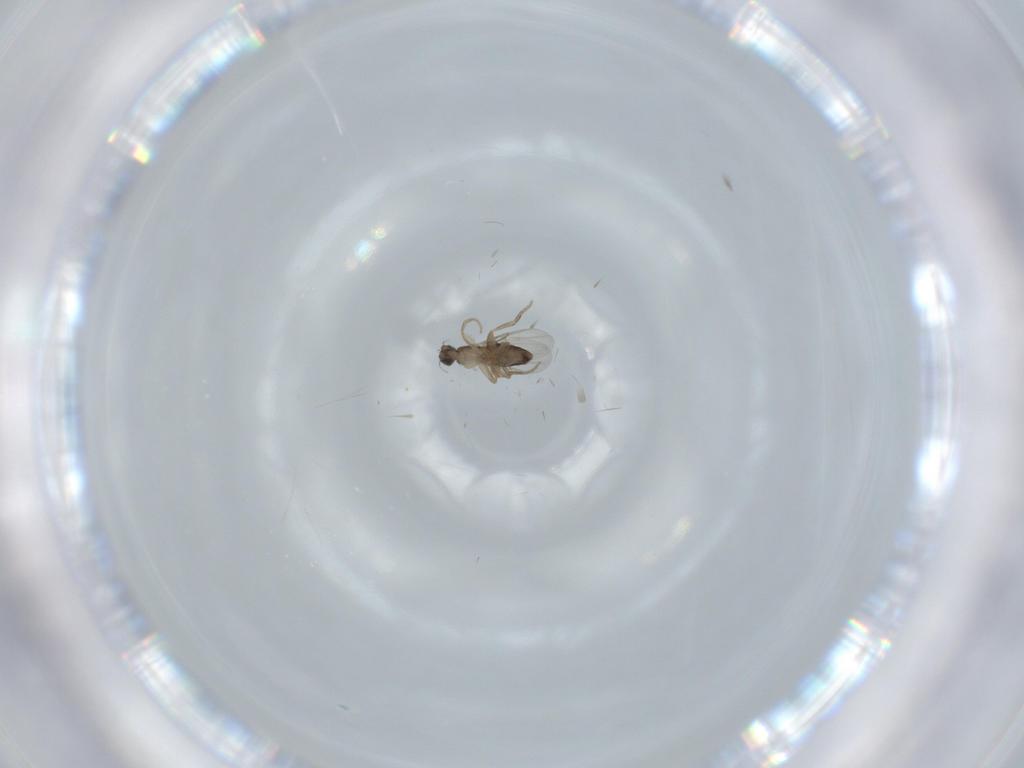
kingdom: Animalia
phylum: Arthropoda
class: Insecta
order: Diptera
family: Phoridae
